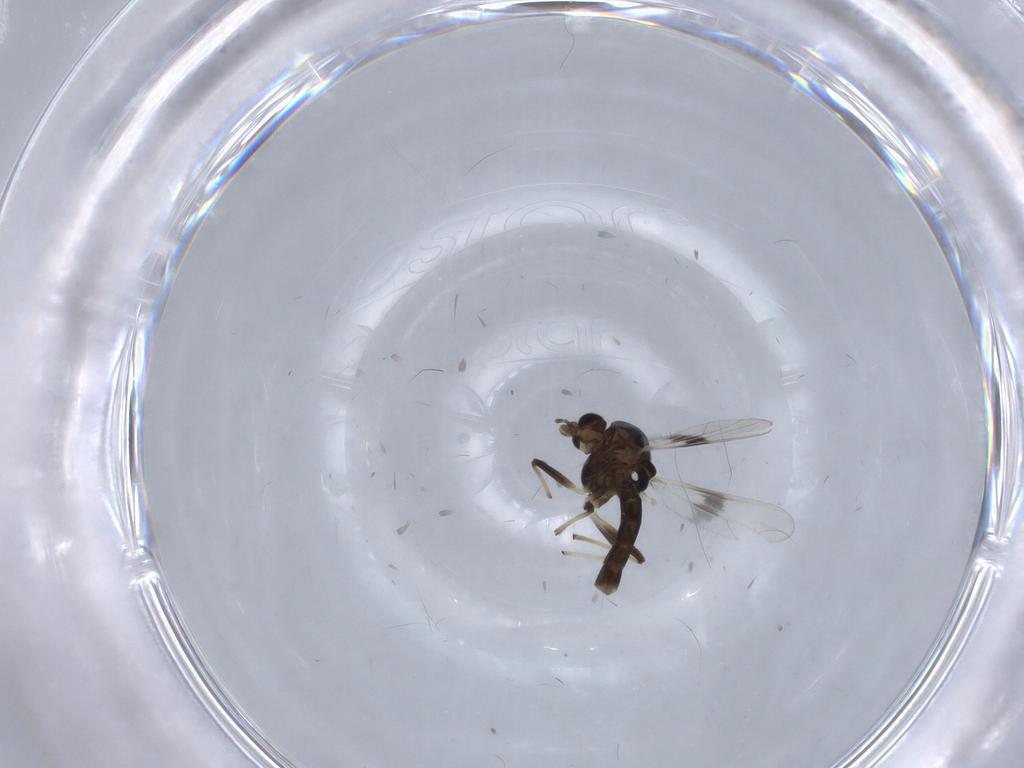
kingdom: Animalia
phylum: Arthropoda
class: Insecta
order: Diptera
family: Chironomidae
